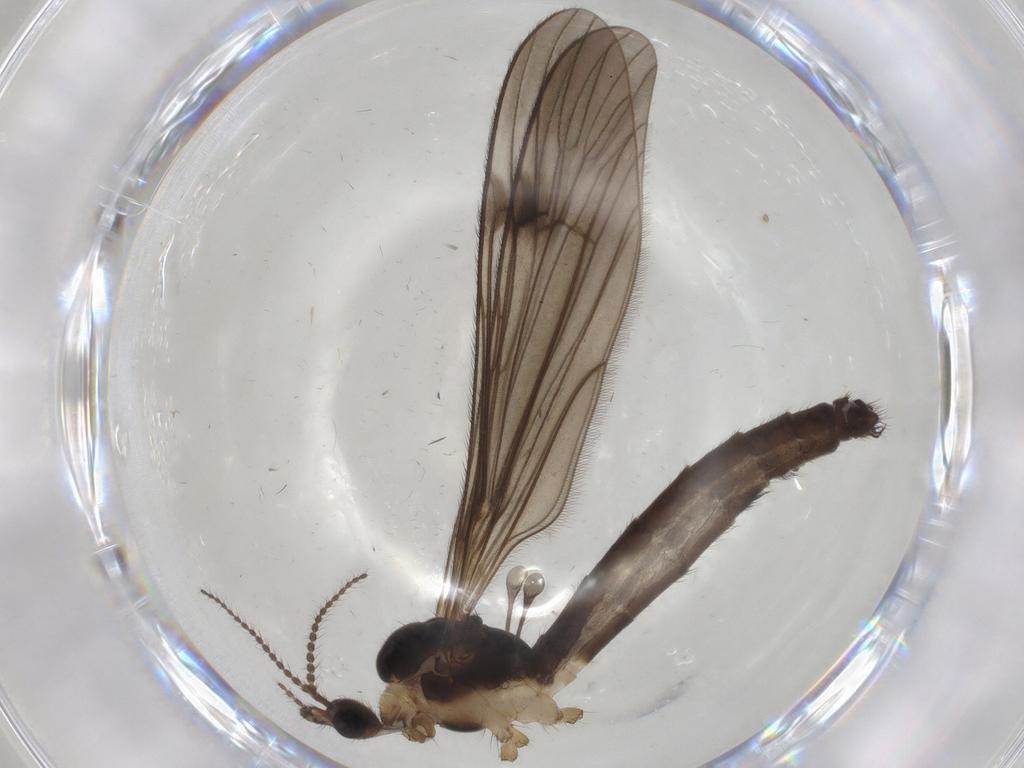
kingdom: Animalia
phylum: Arthropoda
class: Insecta
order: Diptera
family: Limoniidae
